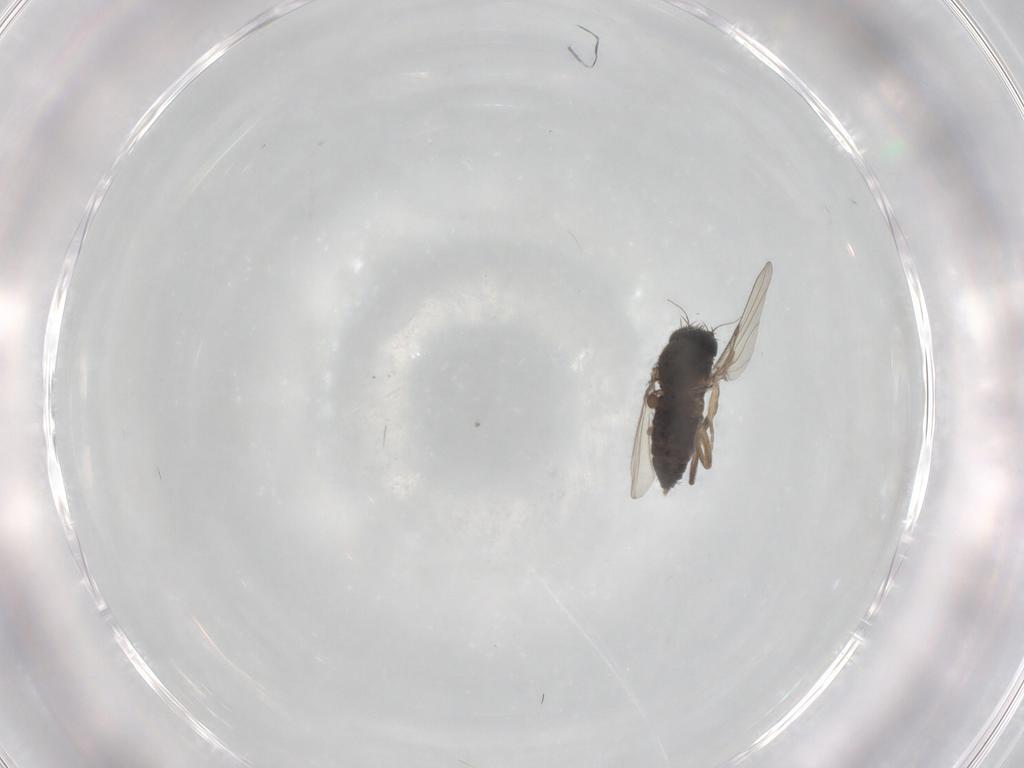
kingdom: Animalia
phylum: Arthropoda
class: Insecta
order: Diptera
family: Phoridae
